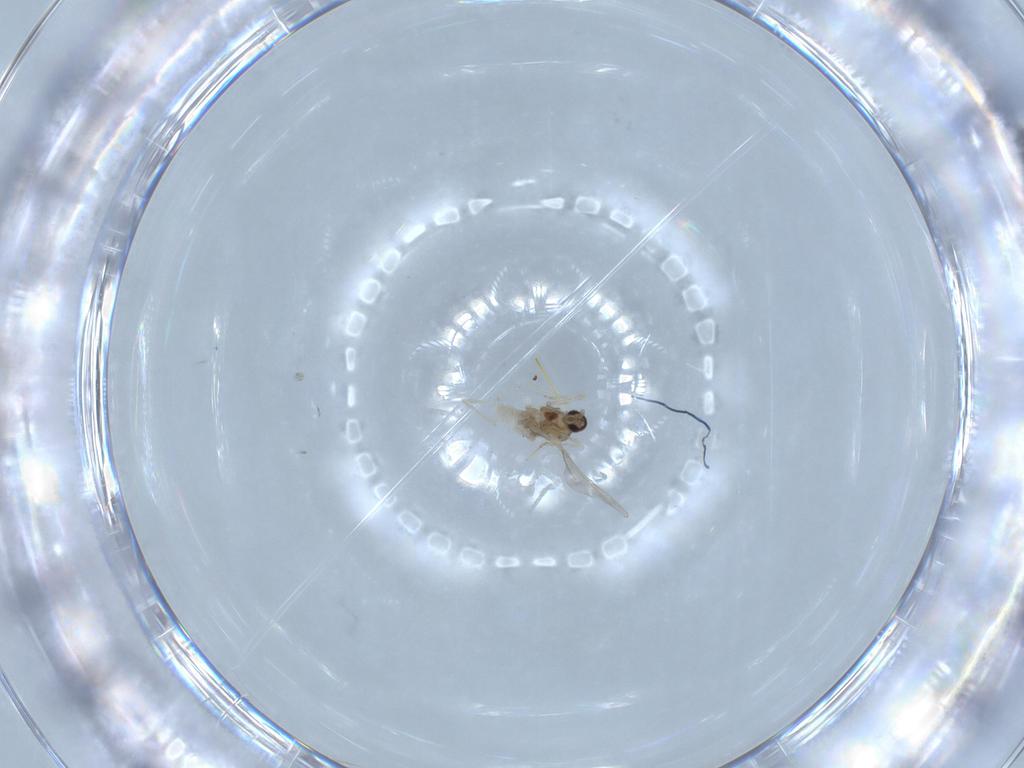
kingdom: Animalia
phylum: Arthropoda
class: Insecta
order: Diptera
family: Cecidomyiidae
